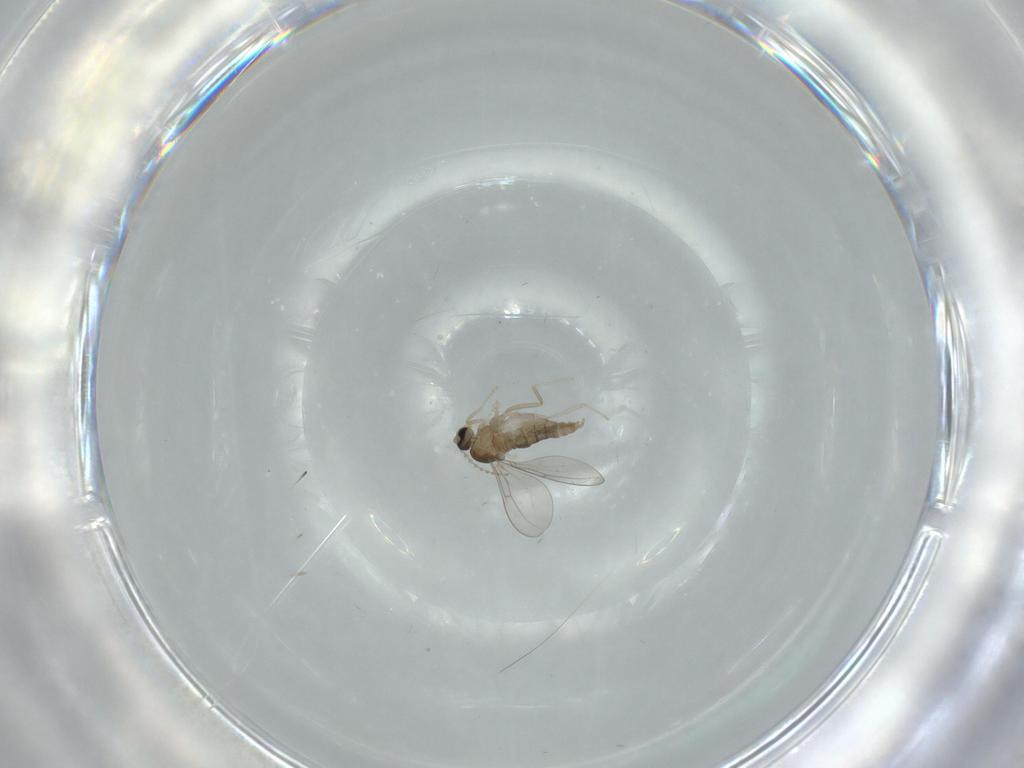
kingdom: Animalia
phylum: Arthropoda
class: Insecta
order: Diptera
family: Cecidomyiidae
